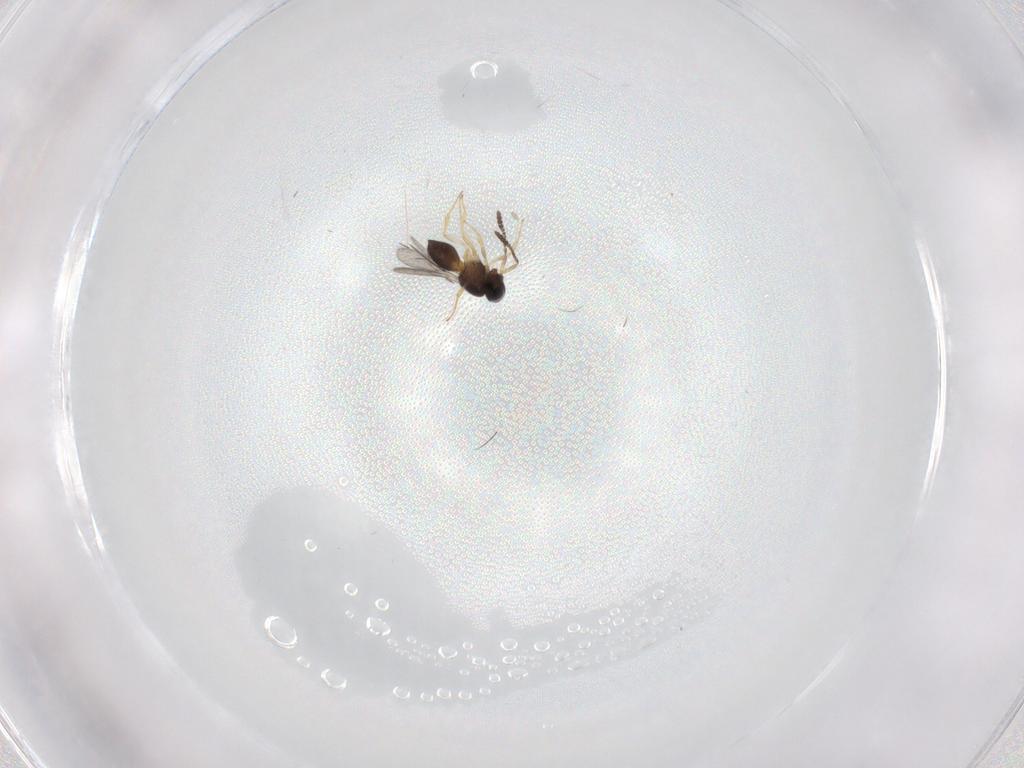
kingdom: Animalia
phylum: Arthropoda
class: Insecta
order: Hymenoptera
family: Scelionidae
